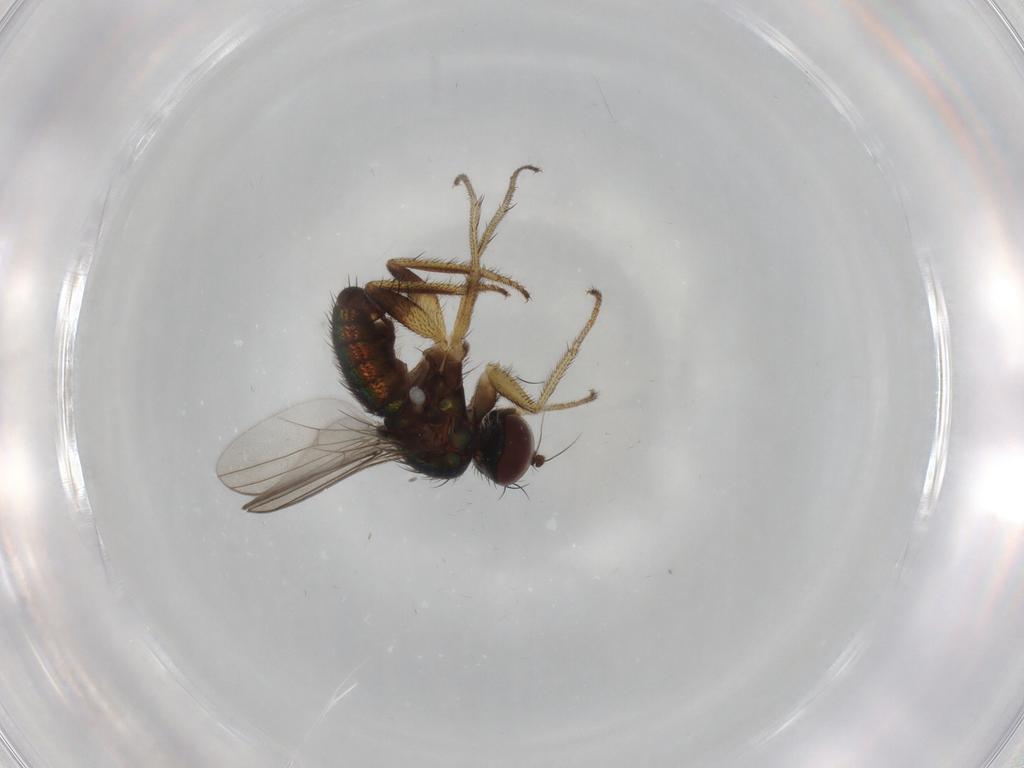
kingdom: Animalia
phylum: Arthropoda
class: Insecta
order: Diptera
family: Dolichopodidae
